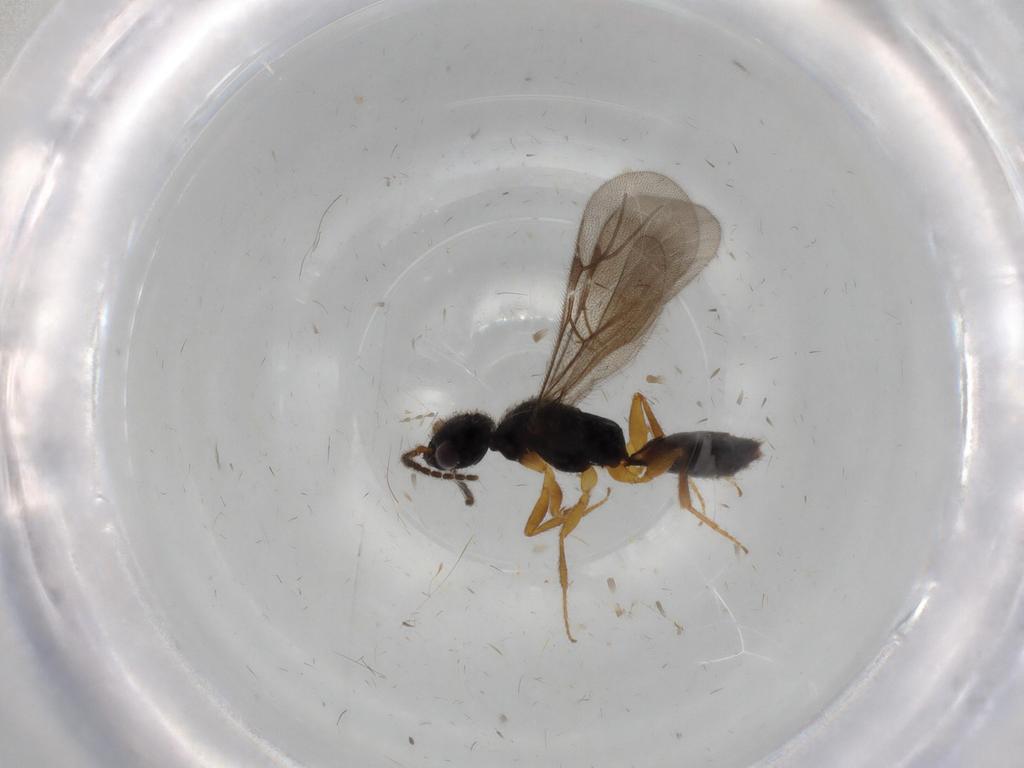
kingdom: Animalia
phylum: Arthropoda
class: Insecta
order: Hymenoptera
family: Bethylidae
